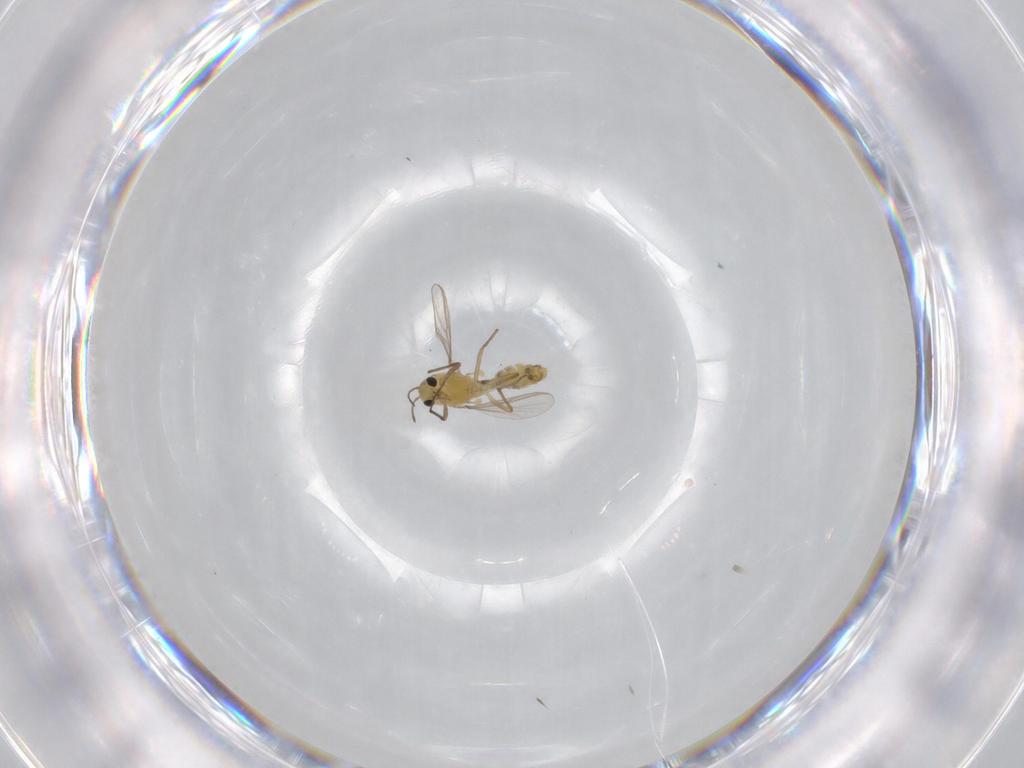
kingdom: Animalia
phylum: Arthropoda
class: Insecta
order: Diptera
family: Chironomidae
